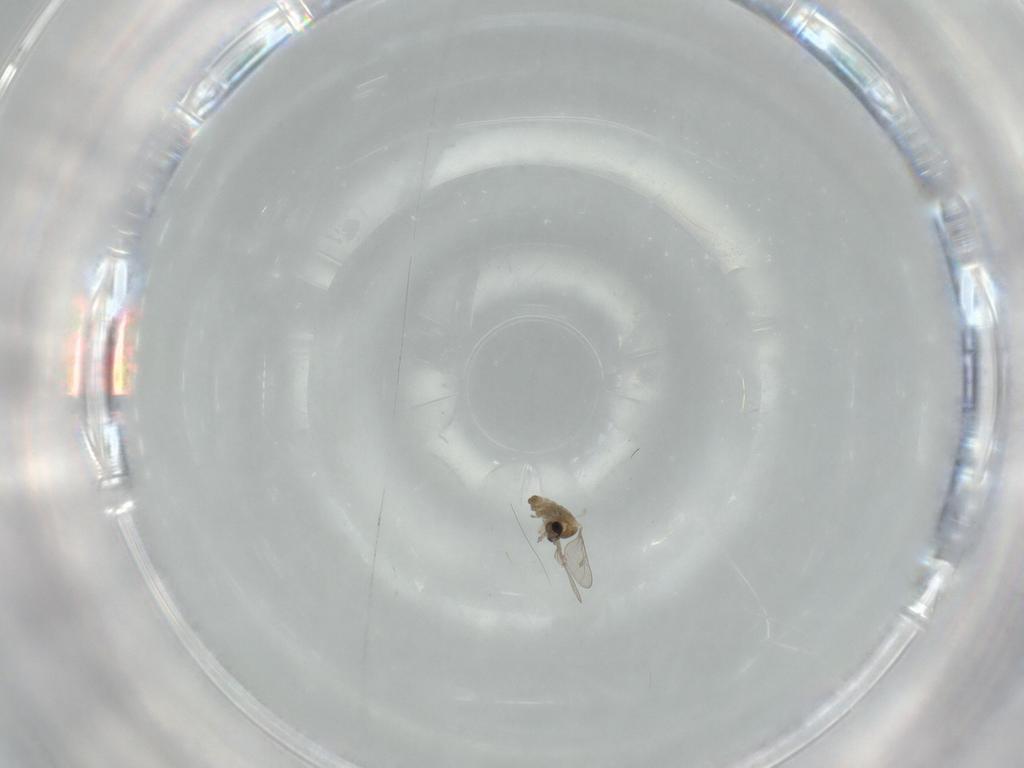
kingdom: Animalia
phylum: Arthropoda
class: Insecta
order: Diptera
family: Cecidomyiidae
